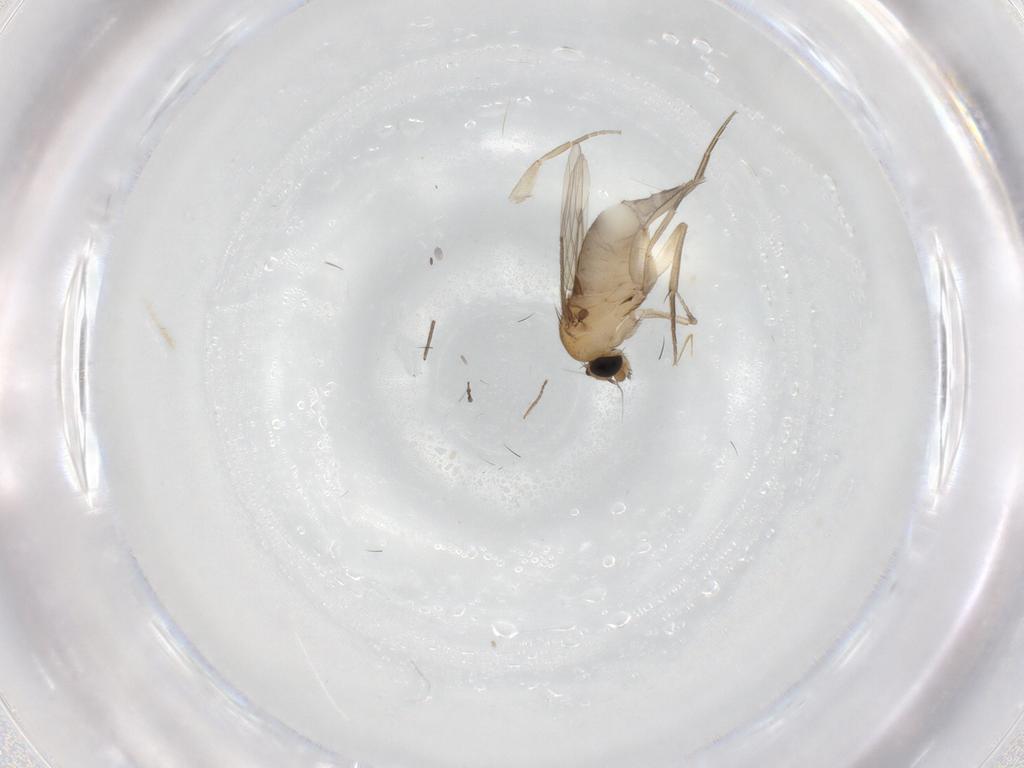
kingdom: Animalia
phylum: Arthropoda
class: Insecta
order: Diptera
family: Phoridae
